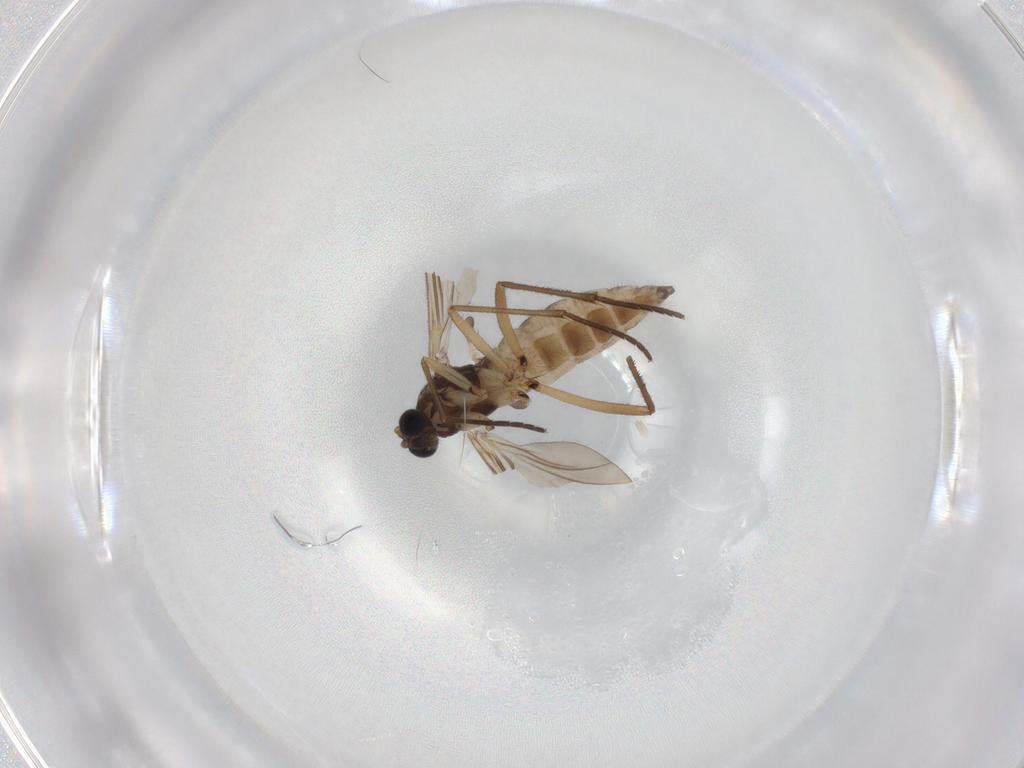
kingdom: Animalia
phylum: Arthropoda
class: Insecta
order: Diptera
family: Sciaridae
